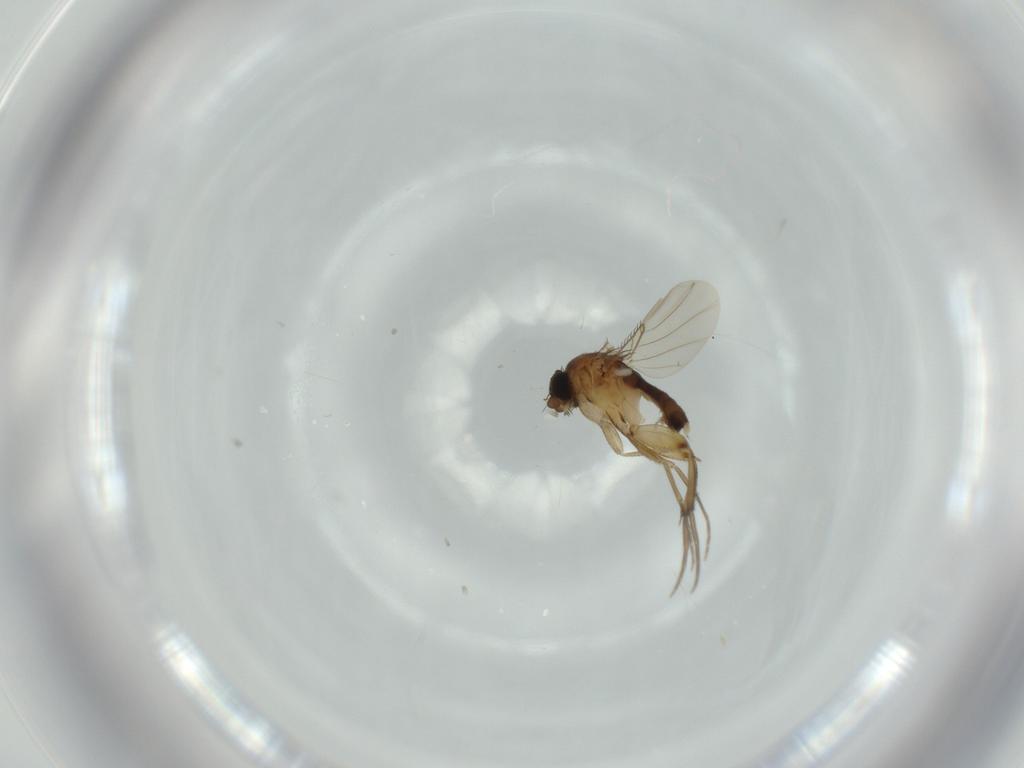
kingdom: Animalia
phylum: Arthropoda
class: Insecta
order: Diptera
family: Phoridae
